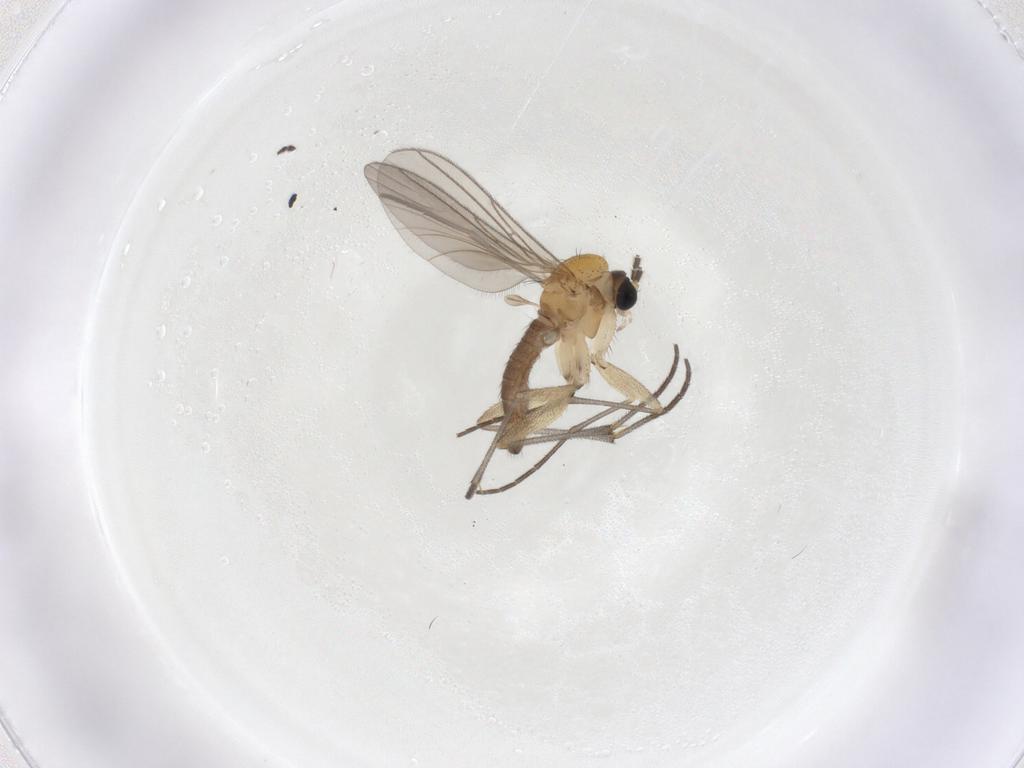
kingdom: Animalia
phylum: Arthropoda
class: Insecta
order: Diptera
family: Sciaridae
